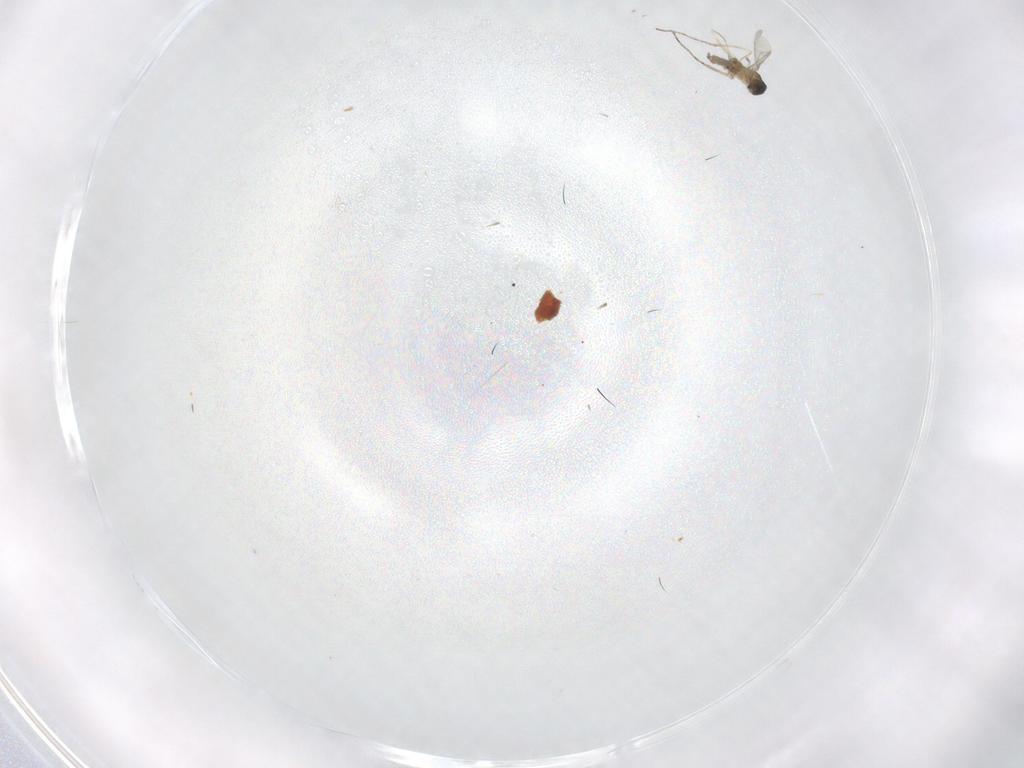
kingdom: Animalia
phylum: Arthropoda
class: Insecta
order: Diptera
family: Cecidomyiidae
